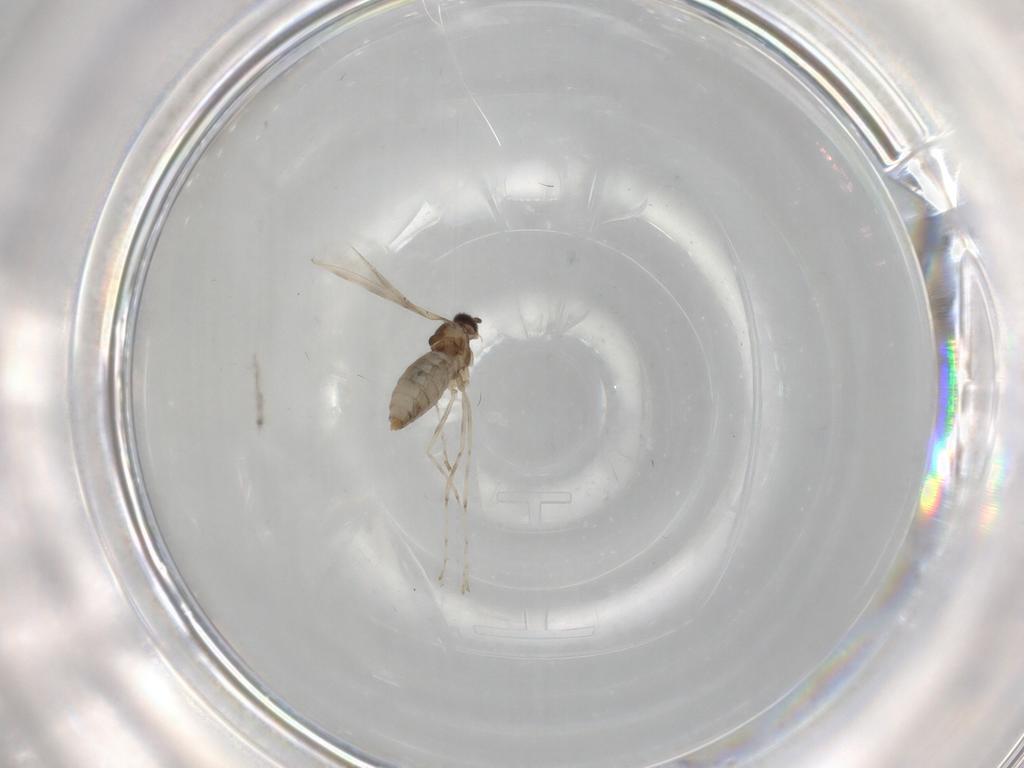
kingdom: Animalia
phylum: Arthropoda
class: Insecta
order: Diptera
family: Cecidomyiidae
